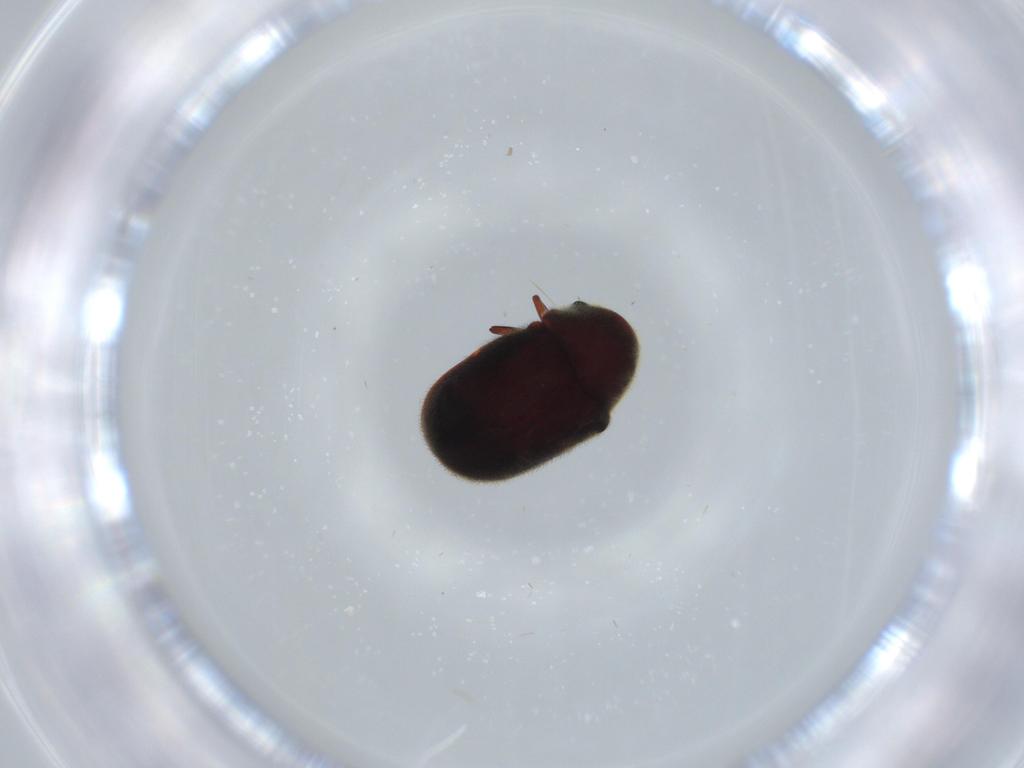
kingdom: Animalia
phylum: Arthropoda
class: Insecta
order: Coleoptera
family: Ptinidae
